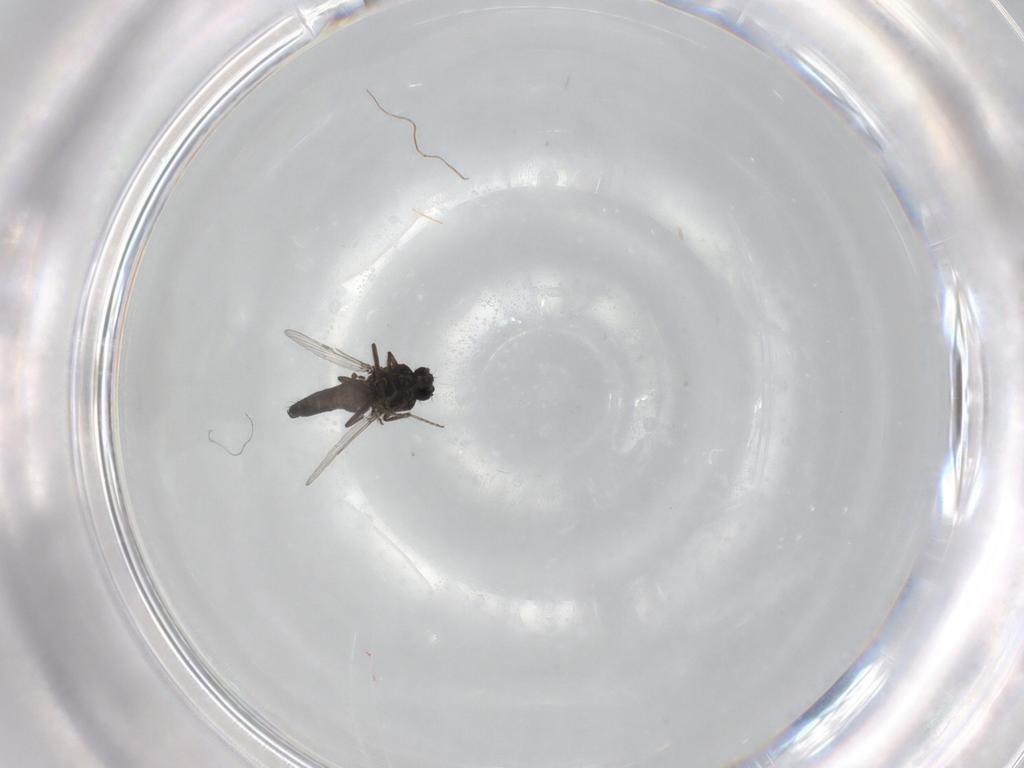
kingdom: Animalia
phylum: Arthropoda
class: Insecta
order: Diptera
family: Ceratopogonidae
